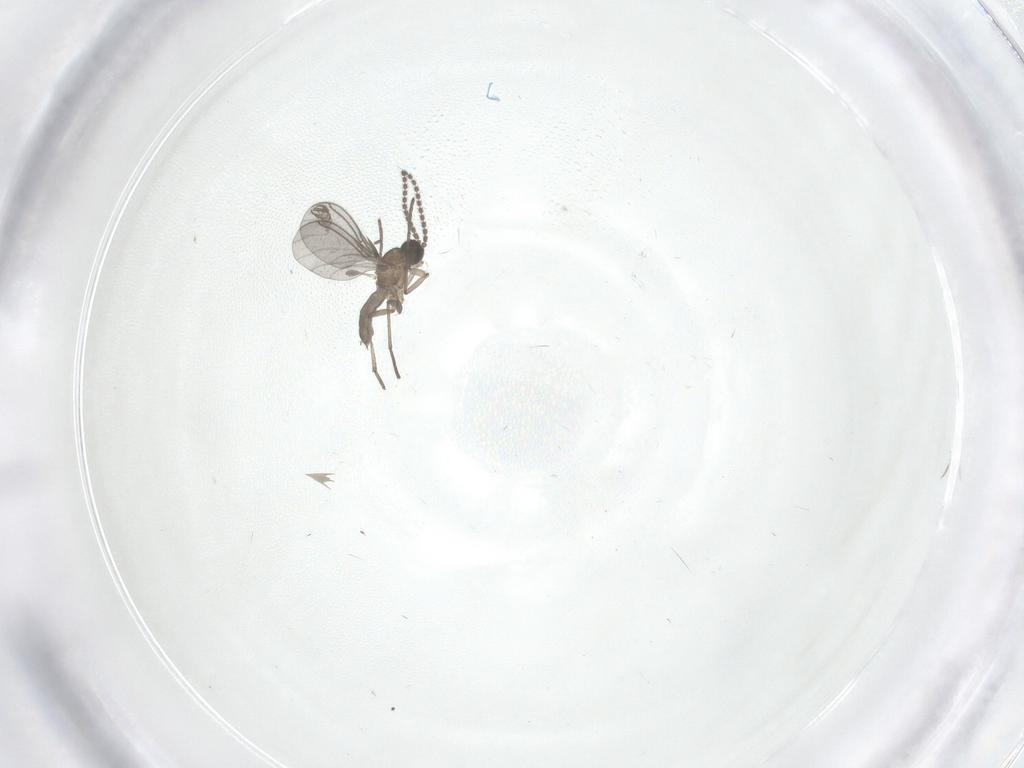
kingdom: Animalia
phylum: Arthropoda
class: Insecta
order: Diptera
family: Sciaridae
